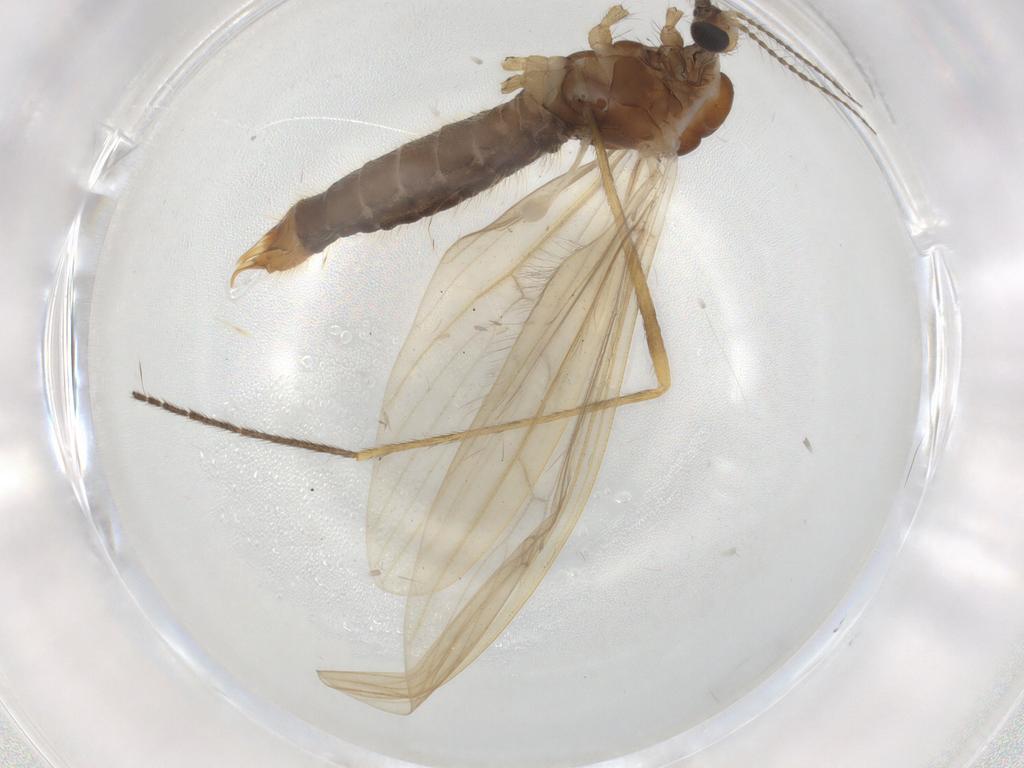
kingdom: Animalia
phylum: Arthropoda
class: Insecta
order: Diptera
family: Limoniidae
